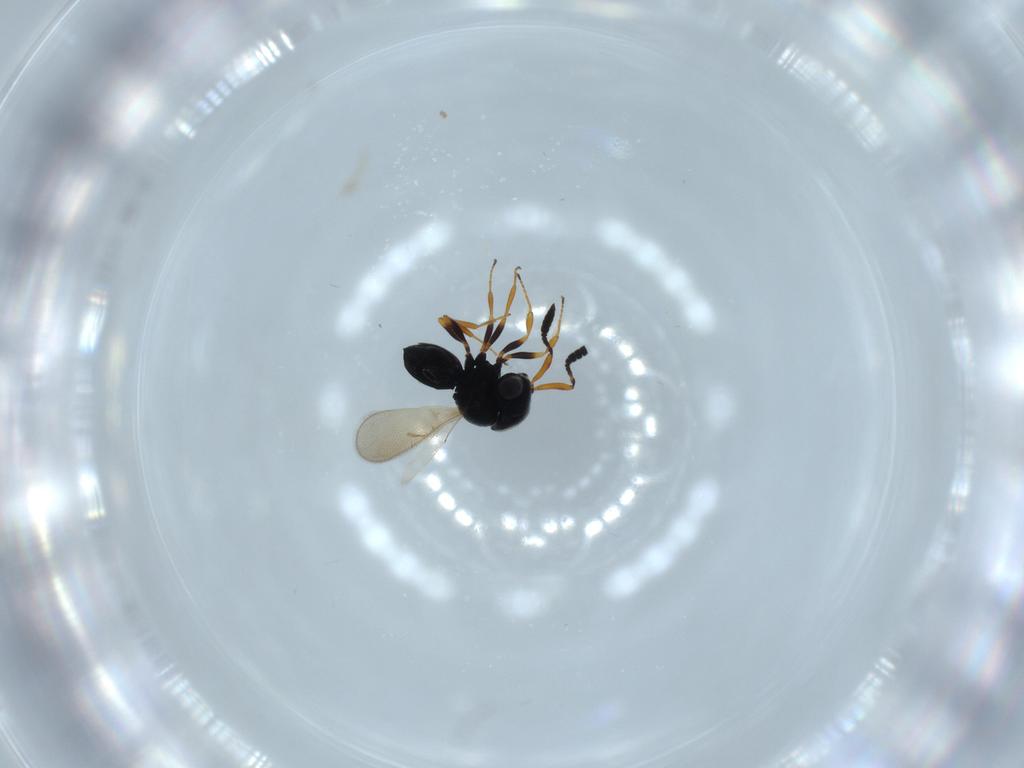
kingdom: Animalia
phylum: Arthropoda
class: Insecta
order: Hymenoptera
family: Scelionidae
